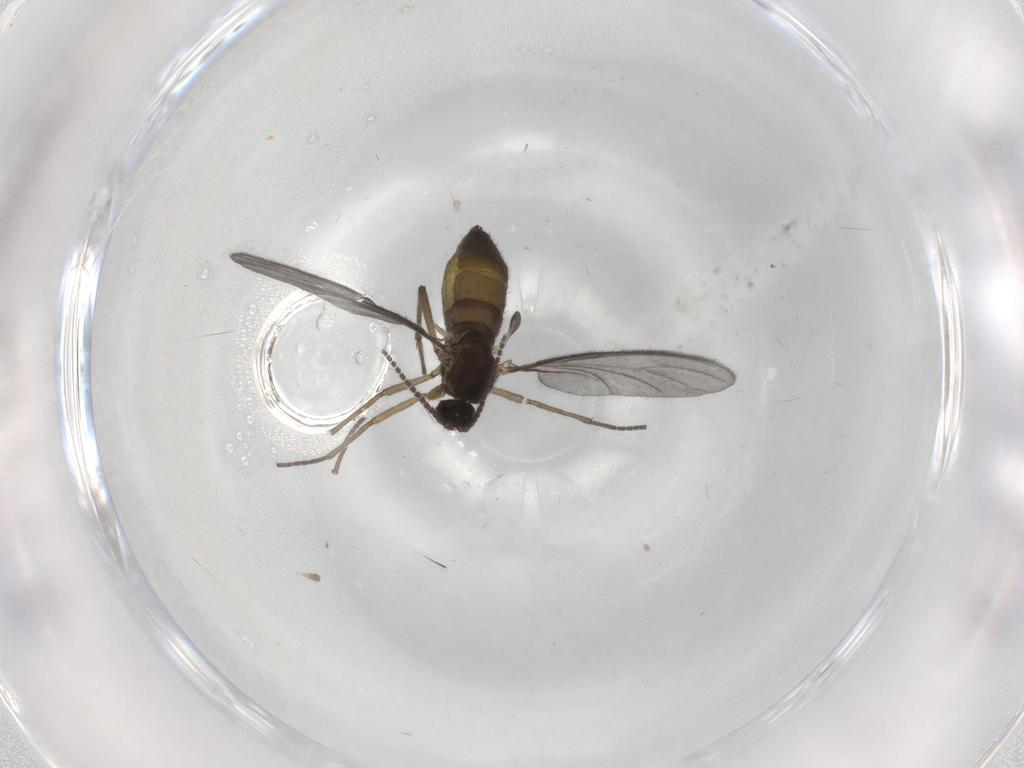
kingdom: Animalia
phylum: Arthropoda
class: Insecta
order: Diptera
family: Sciaridae
